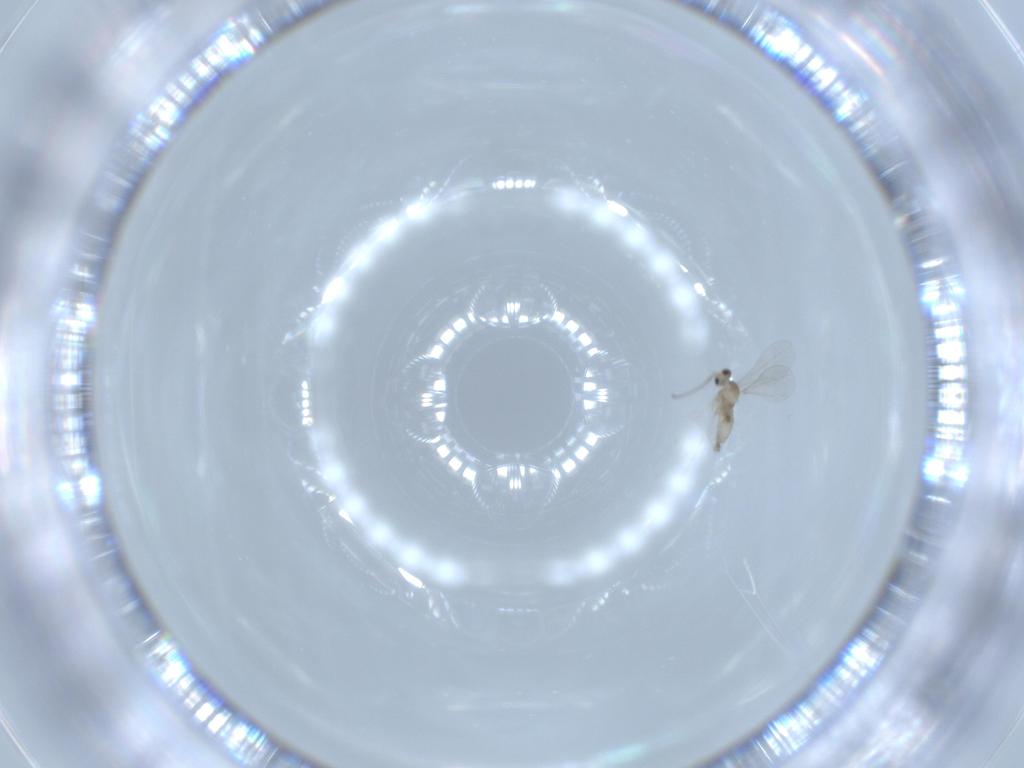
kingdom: Animalia
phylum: Arthropoda
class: Insecta
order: Diptera
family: Cecidomyiidae
